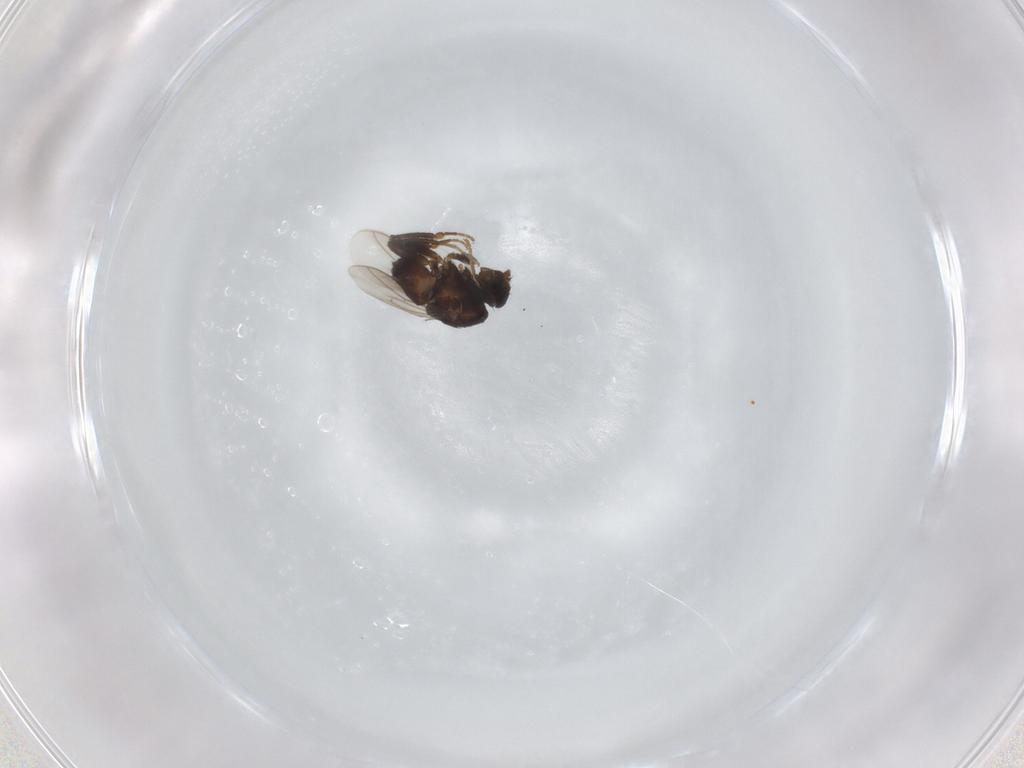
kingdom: Animalia
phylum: Arthropoda
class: Insecta
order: Diptera
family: Sphaeroceridae
